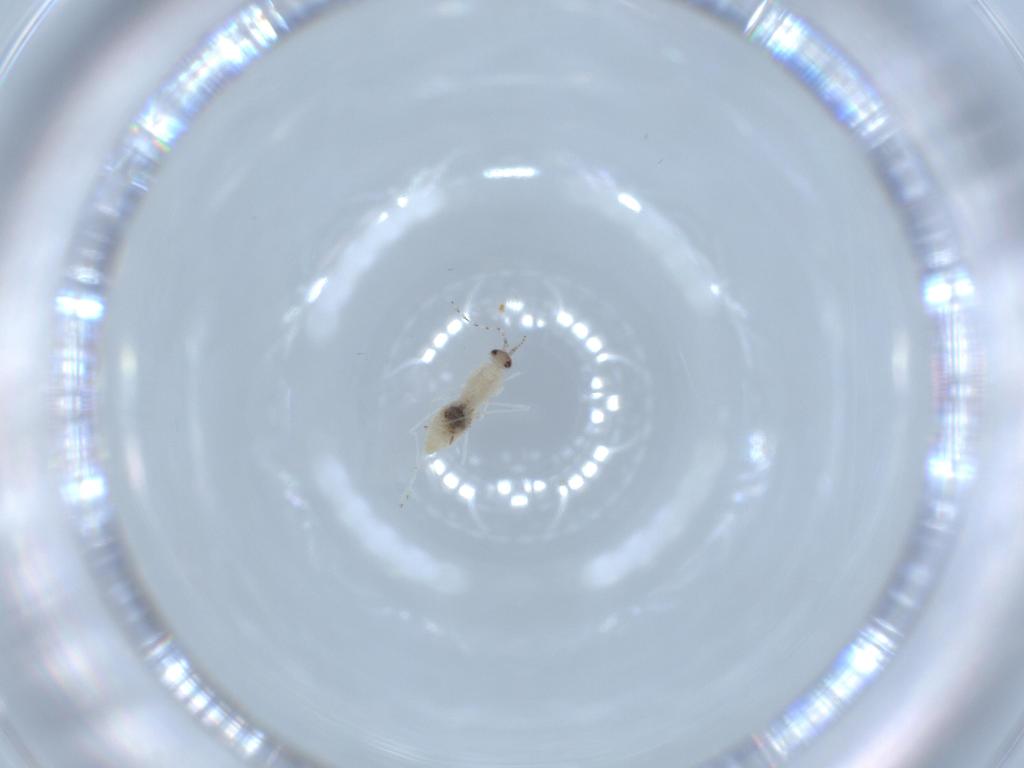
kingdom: Animalia
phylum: Arthropoda
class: Insecta
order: Diptera
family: Cecidomyiidae
